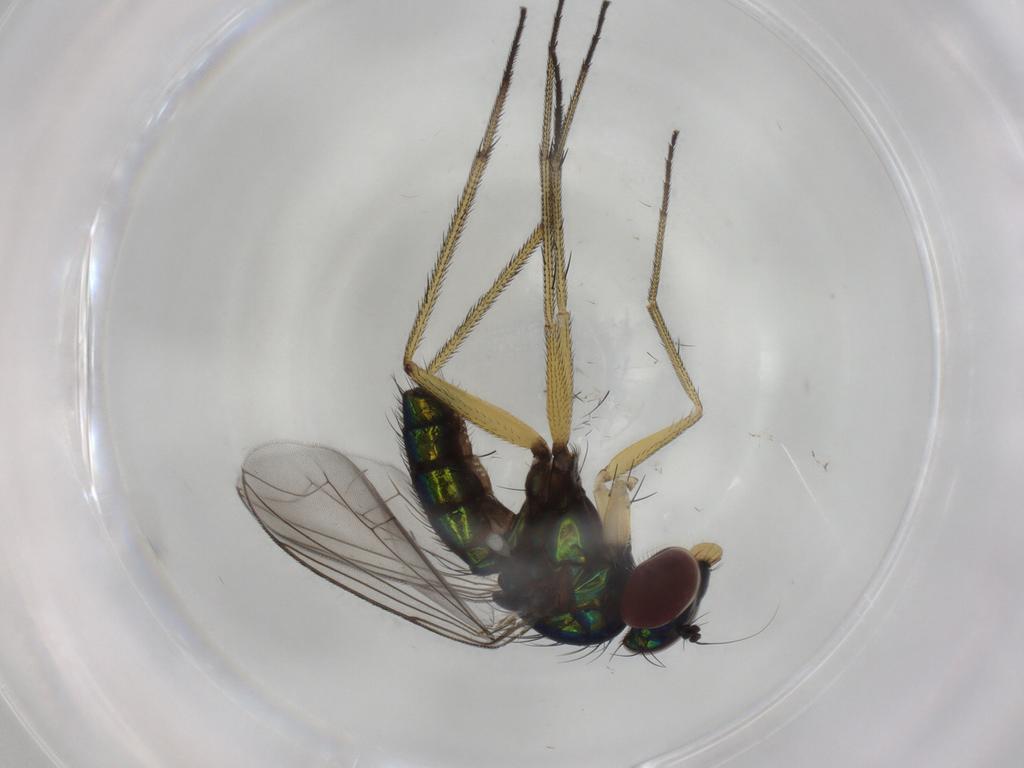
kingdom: Animalia
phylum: Arthropoda
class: Insecta
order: Diptera
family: Dolichopodidae
